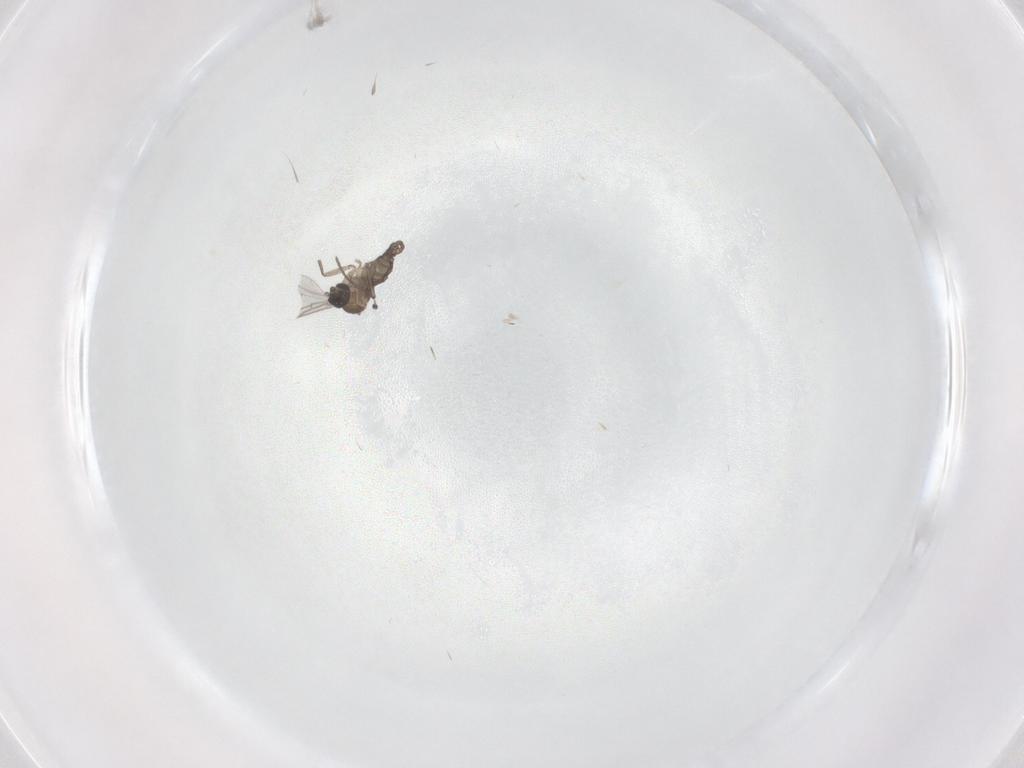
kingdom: Animalia
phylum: Arthropoda
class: Insecta
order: Diptera
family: Sciaridae
